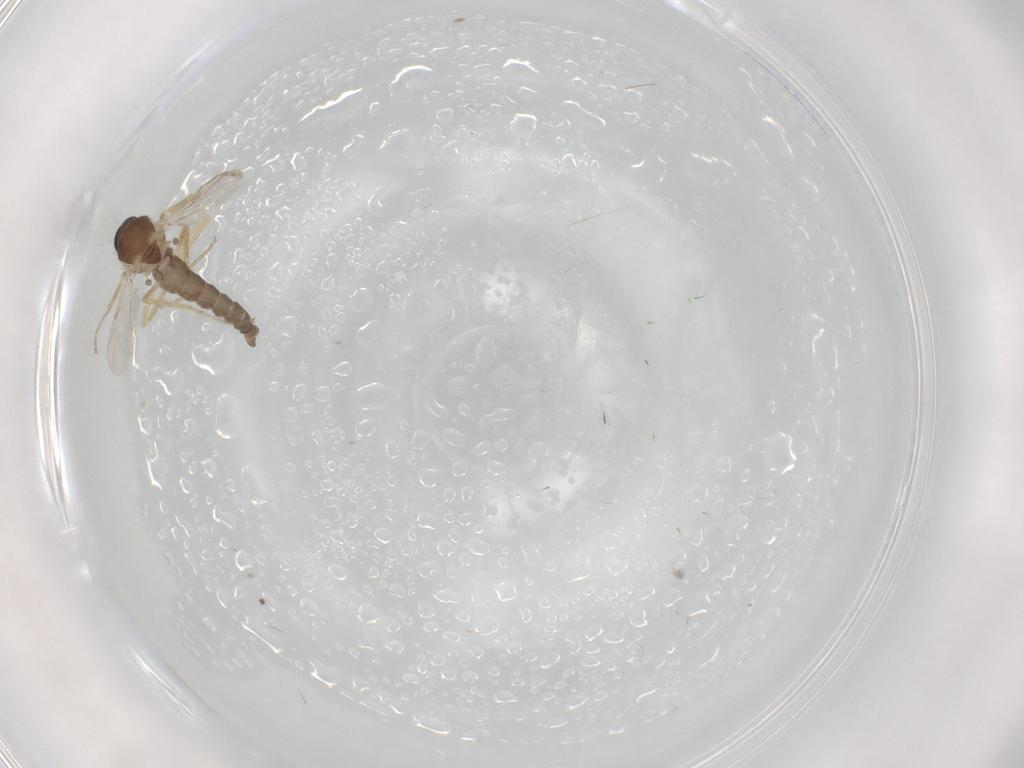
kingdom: Animalia
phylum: Arthropoda
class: Insecta
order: Diptera
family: Ceratopogonidae
